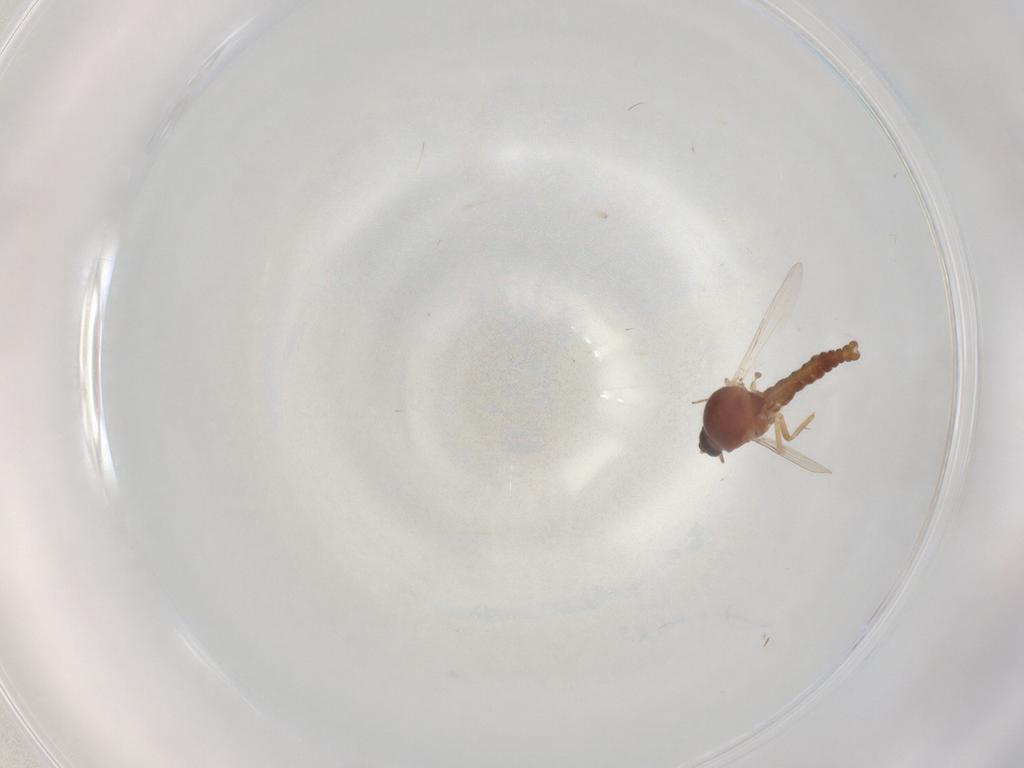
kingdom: Animalia
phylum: Arthropoda
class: Insecta
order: Diptera
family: Ceratopogonidae
